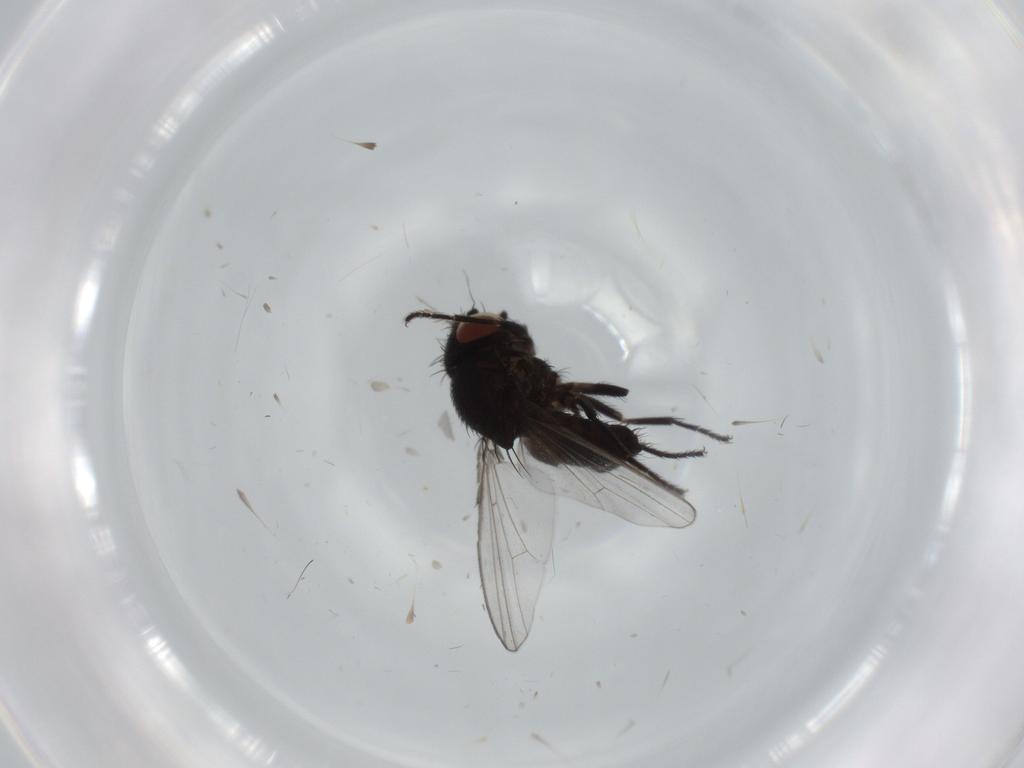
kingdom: Animalia
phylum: Arthropoda
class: Insecta
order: Diptera
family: Milichiidae
